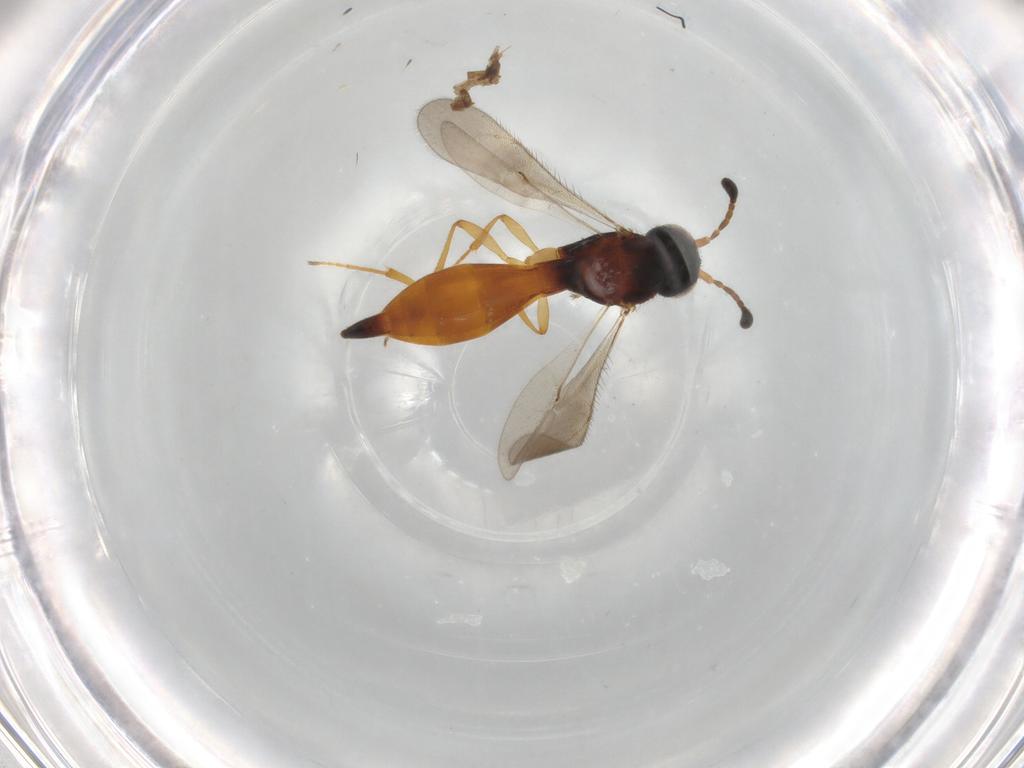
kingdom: Animalia
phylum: Arthropoda
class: Insecta
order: Hymenoptera
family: Scelionidae
